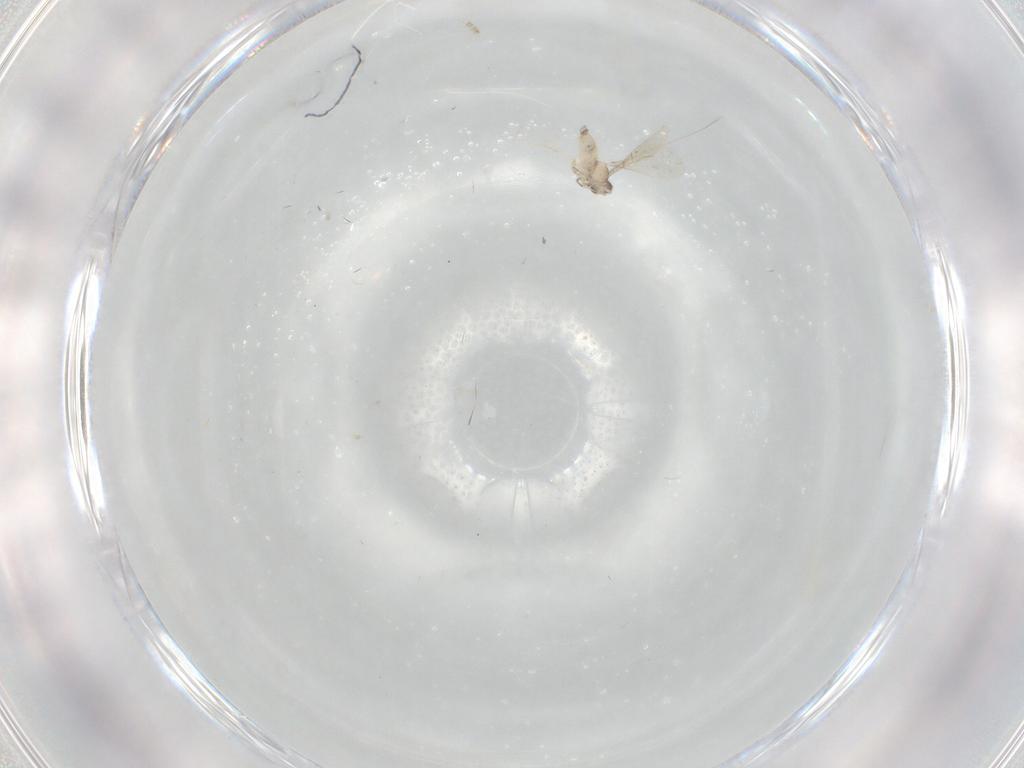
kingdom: Animalia
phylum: Arthropoda
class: Insecta
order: Diptera
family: Cecidomyiidae
